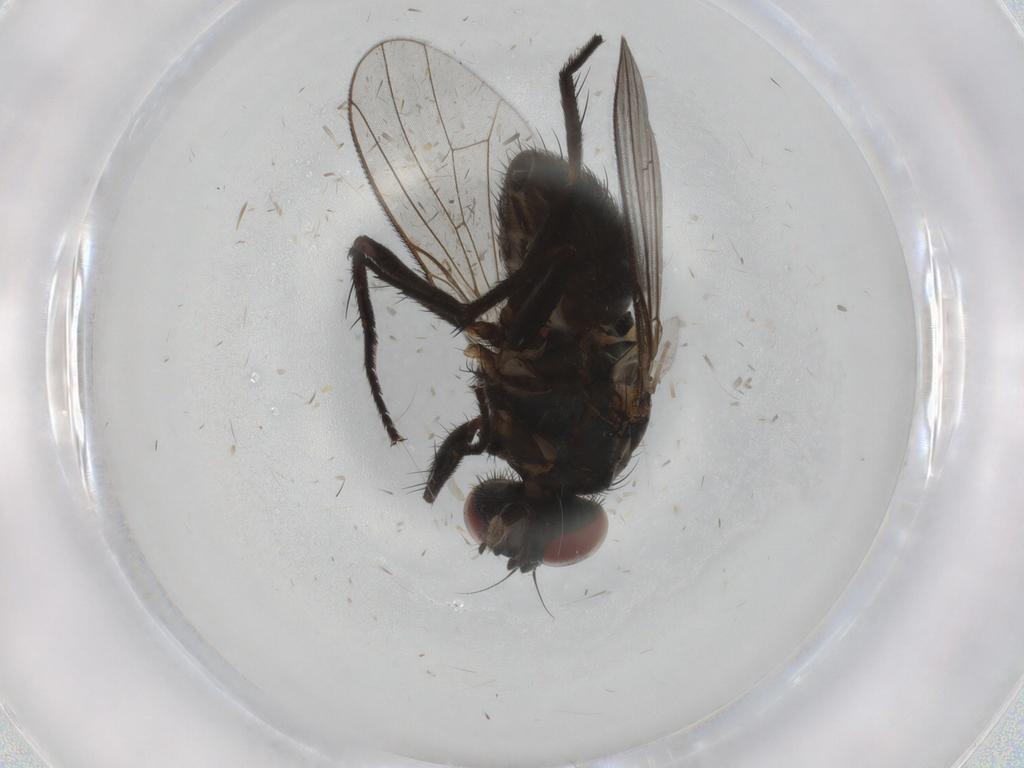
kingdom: Animalia
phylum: Arthropoda
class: Insecta
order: Diptera
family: Muscidae
